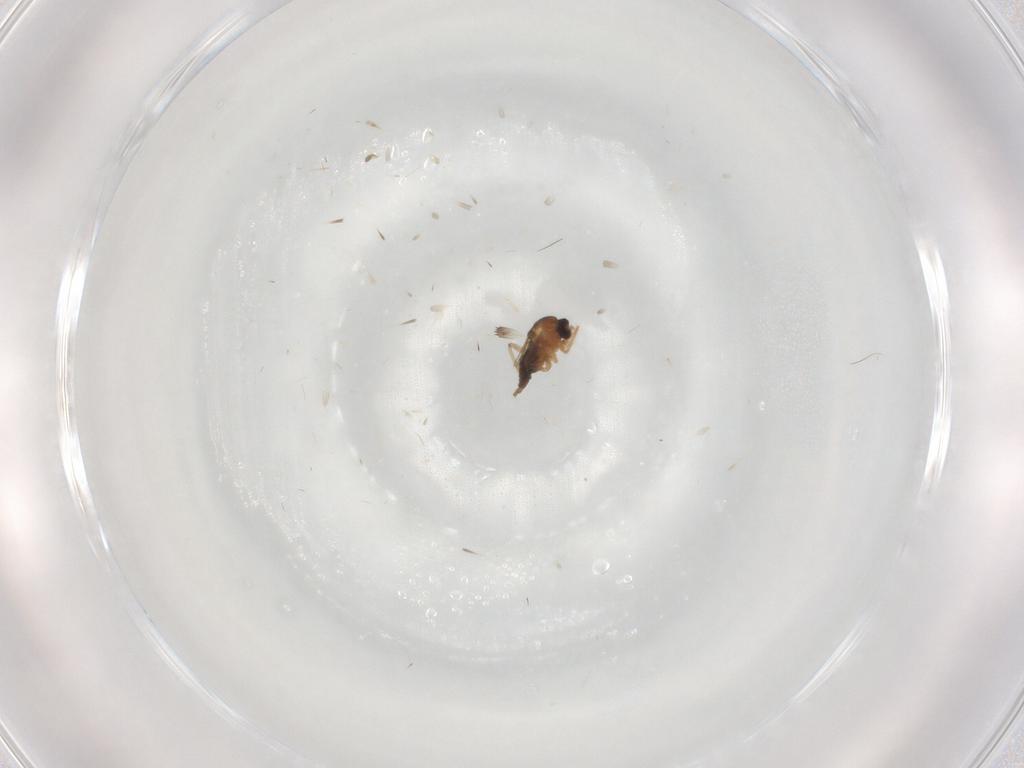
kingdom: Animalia
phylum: Arthropoda
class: Insecta
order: Diptera
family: Cecidomyiidae
